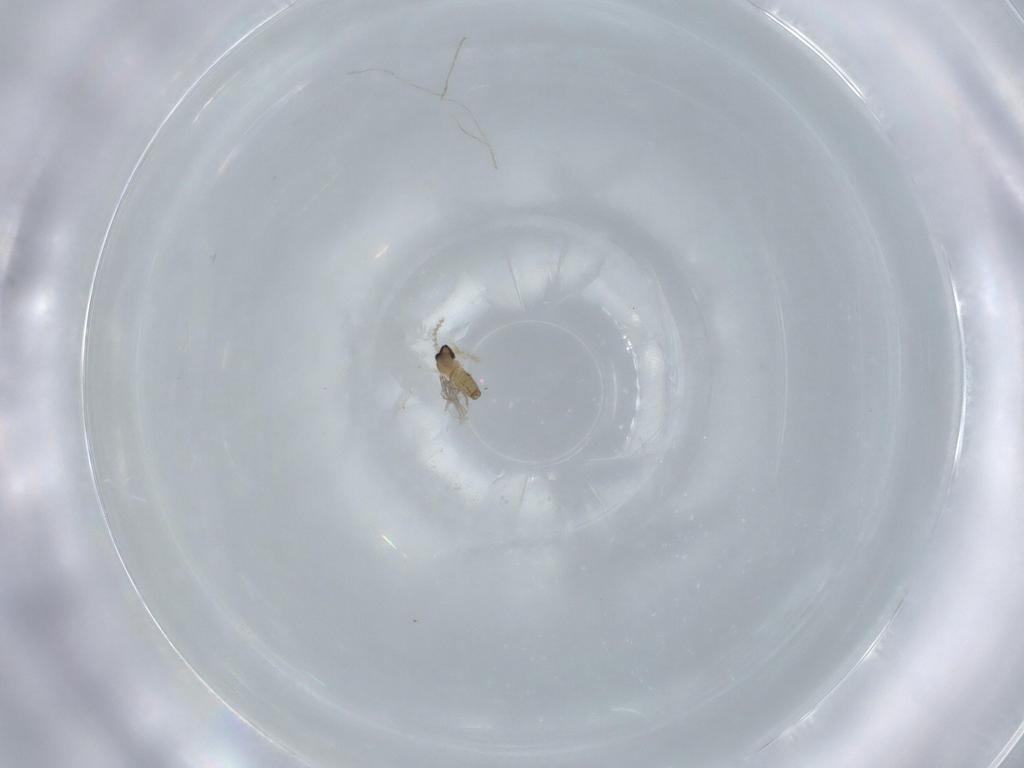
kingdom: Animalia
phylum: Arthropoda
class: Insecta
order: Diptera
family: Cecidomyiidae
